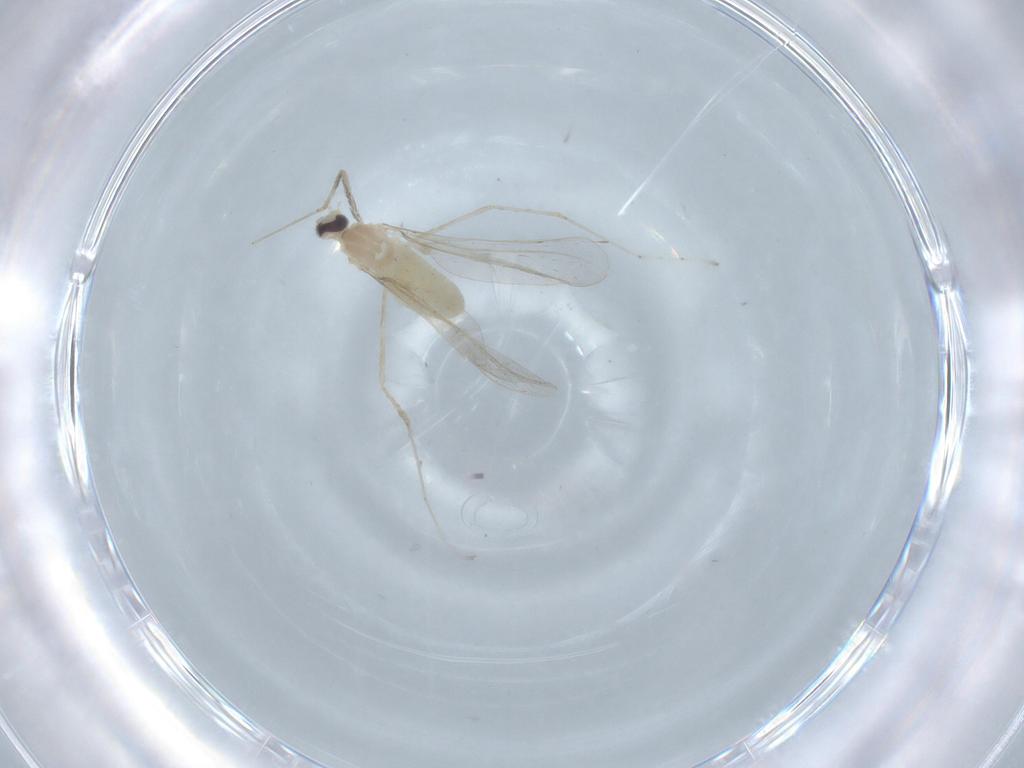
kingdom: Animalia
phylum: Arthropoda
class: Insecta
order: Diptera
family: Cecidomyiidae
